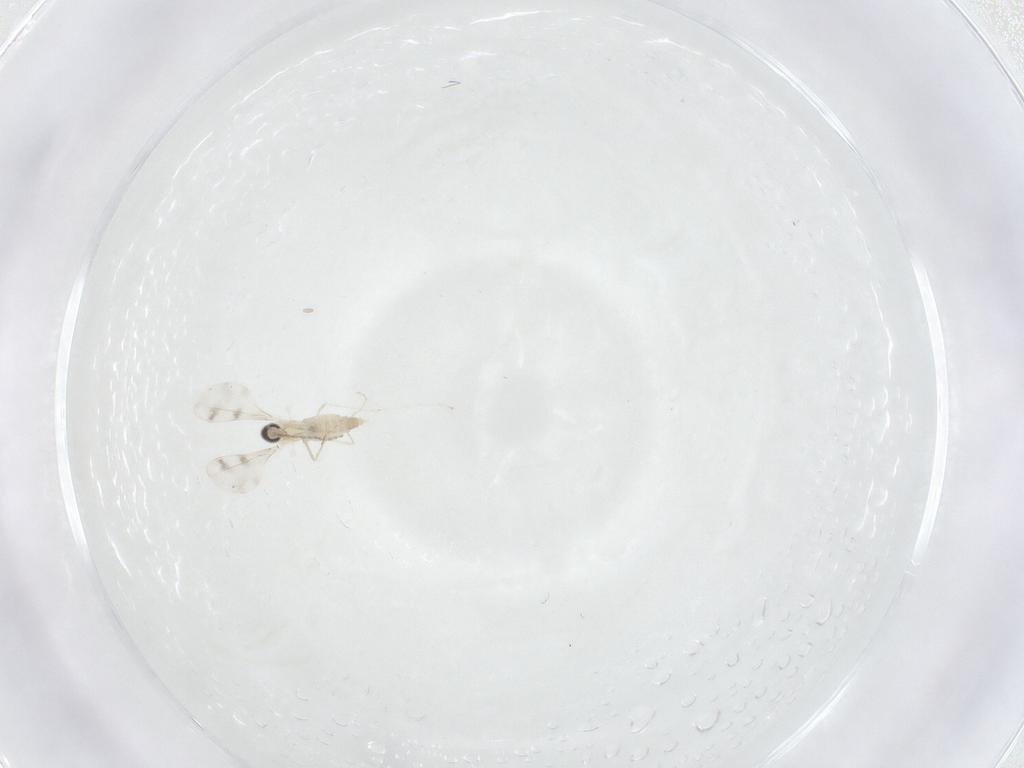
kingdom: Animalia
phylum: Arthropoda
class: Insecta
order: Diptera
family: Cecidomyiidae
